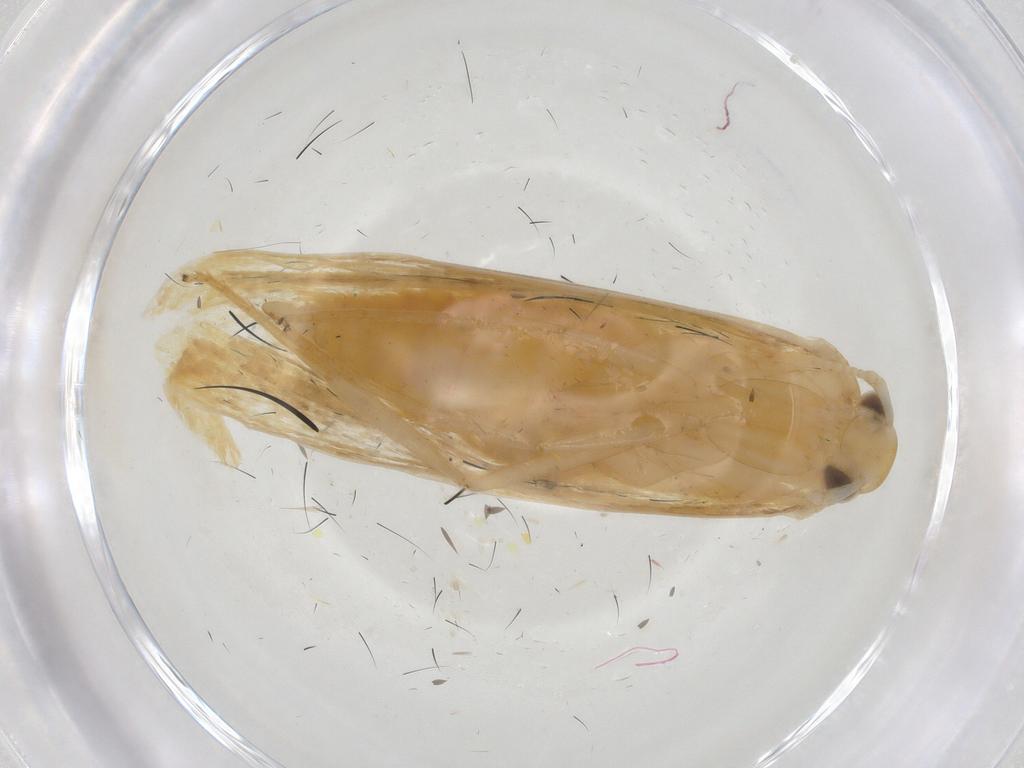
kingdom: Animalia
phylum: Arthropoda
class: Insecta
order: Lepidoptera
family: Lecithoceridae
